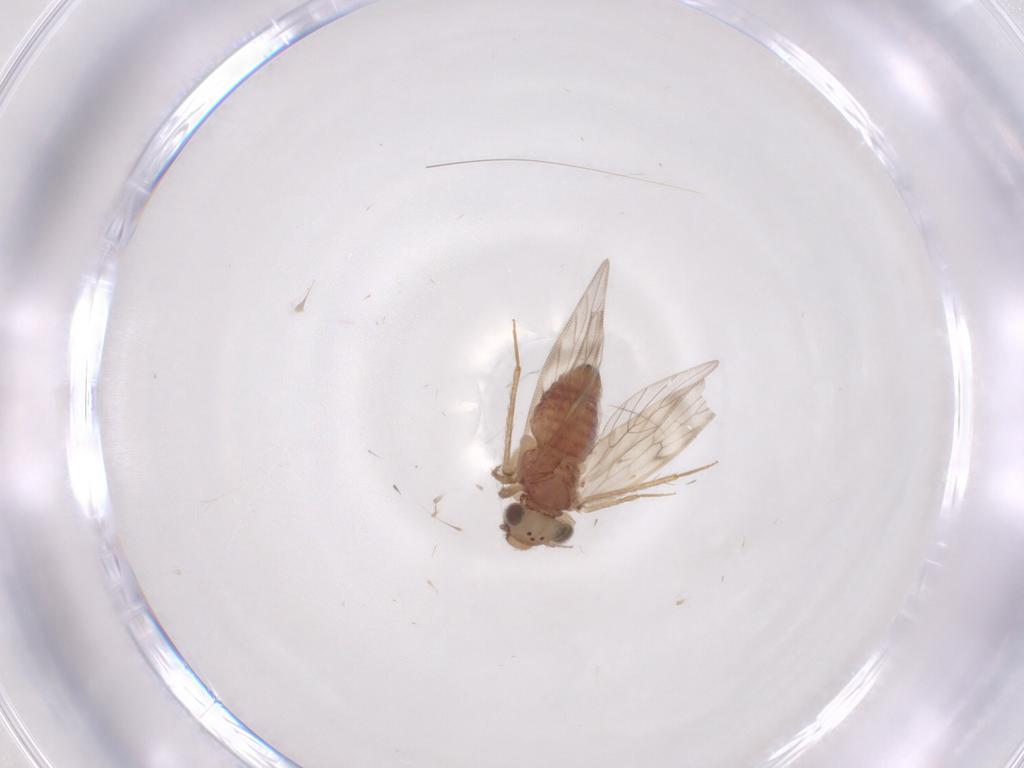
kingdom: Animalia
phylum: Arthropoda
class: Insecta
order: Psocodea
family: Lepidopsocidae
